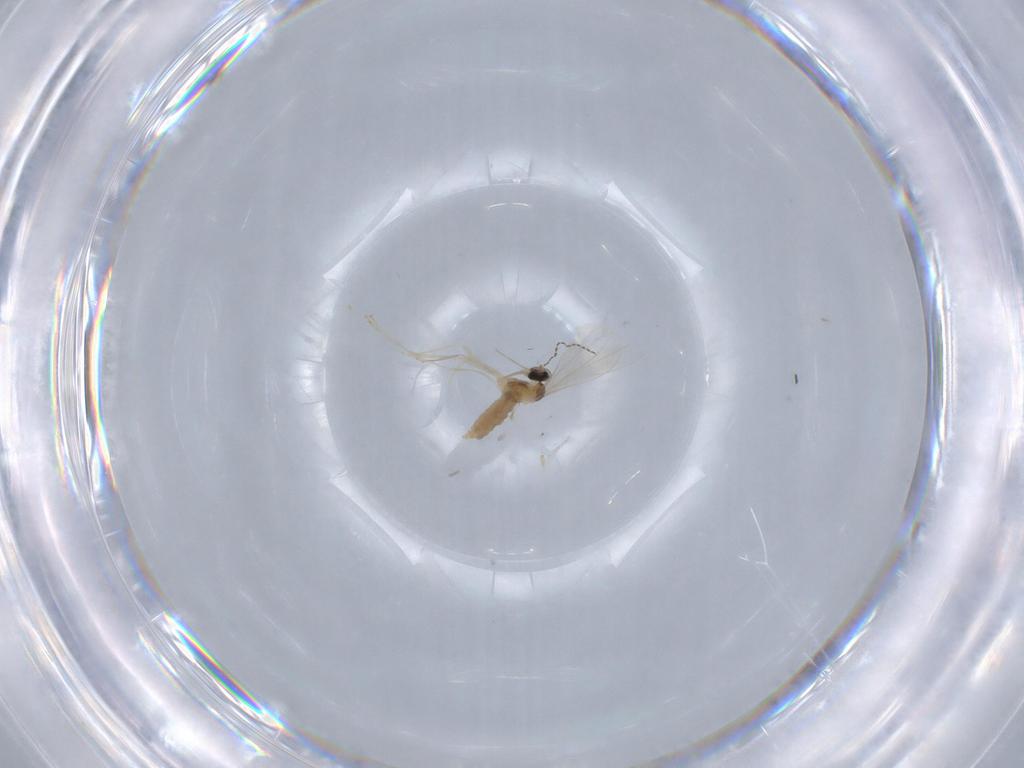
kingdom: Animalia
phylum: Arthropoda
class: Insecta
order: Diptera
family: Cecidomyiidae
